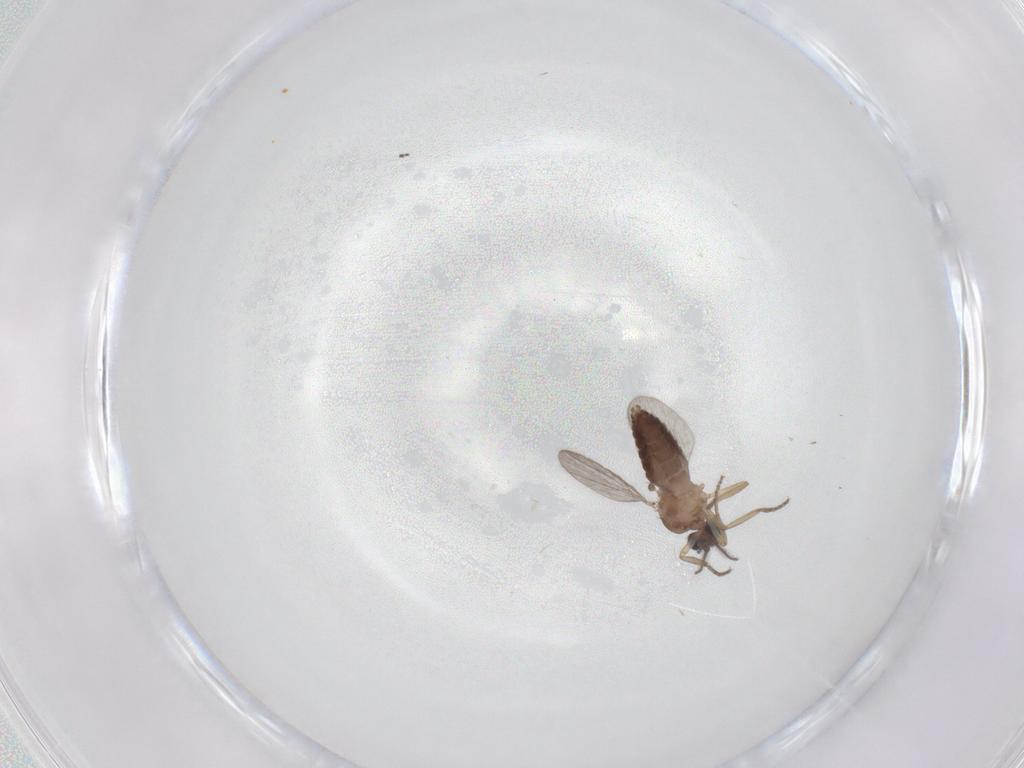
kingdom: Animalia
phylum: Arthropoda
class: Insecta
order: Diptera
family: Ceratopogonidae
